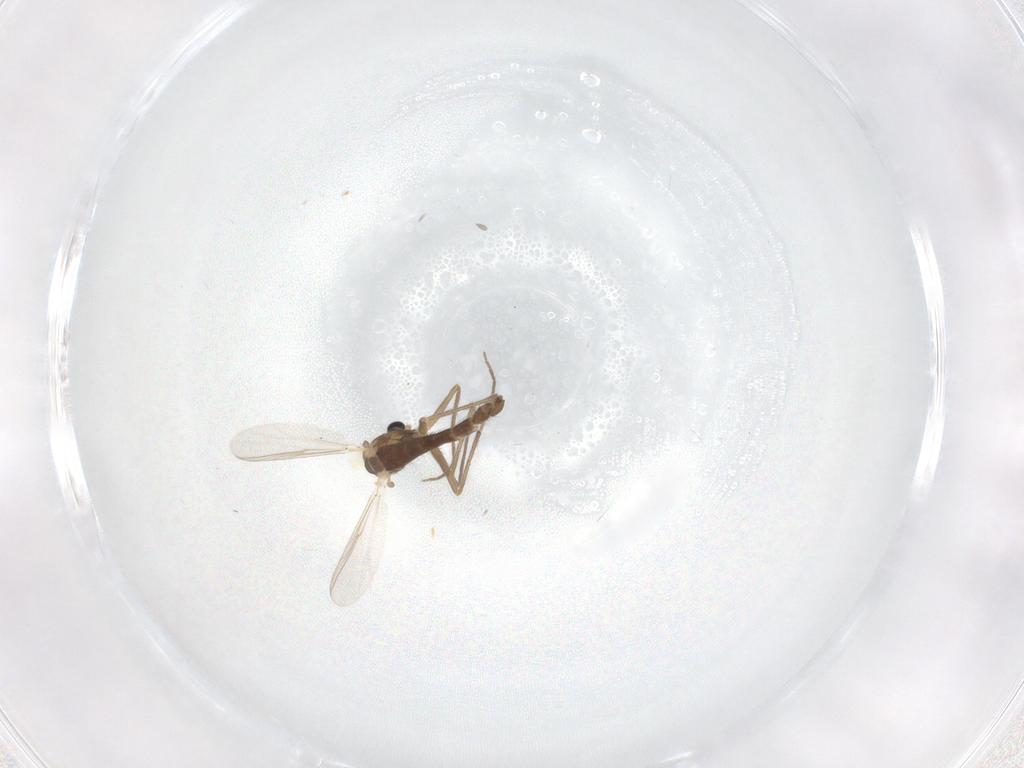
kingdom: Animalia
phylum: Arthropoda
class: Insecta
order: Diptera
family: Chironomidae
